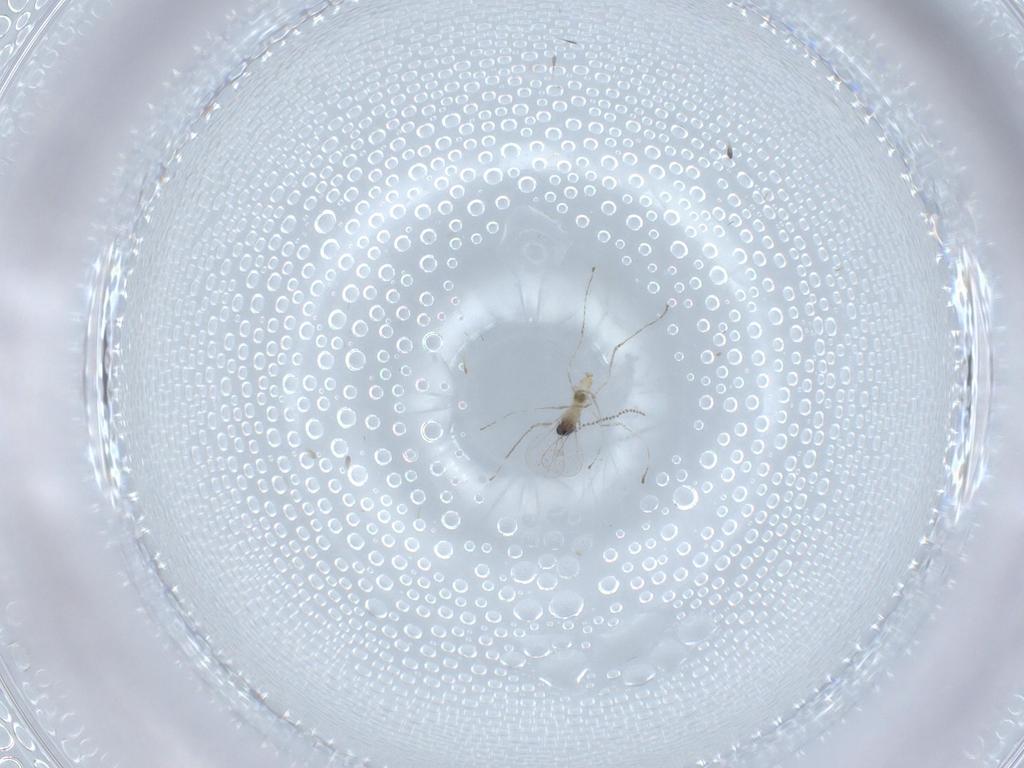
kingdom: Animalia
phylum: Arthropoda
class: Insecta
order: Diptera
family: Cecidomyiidae
